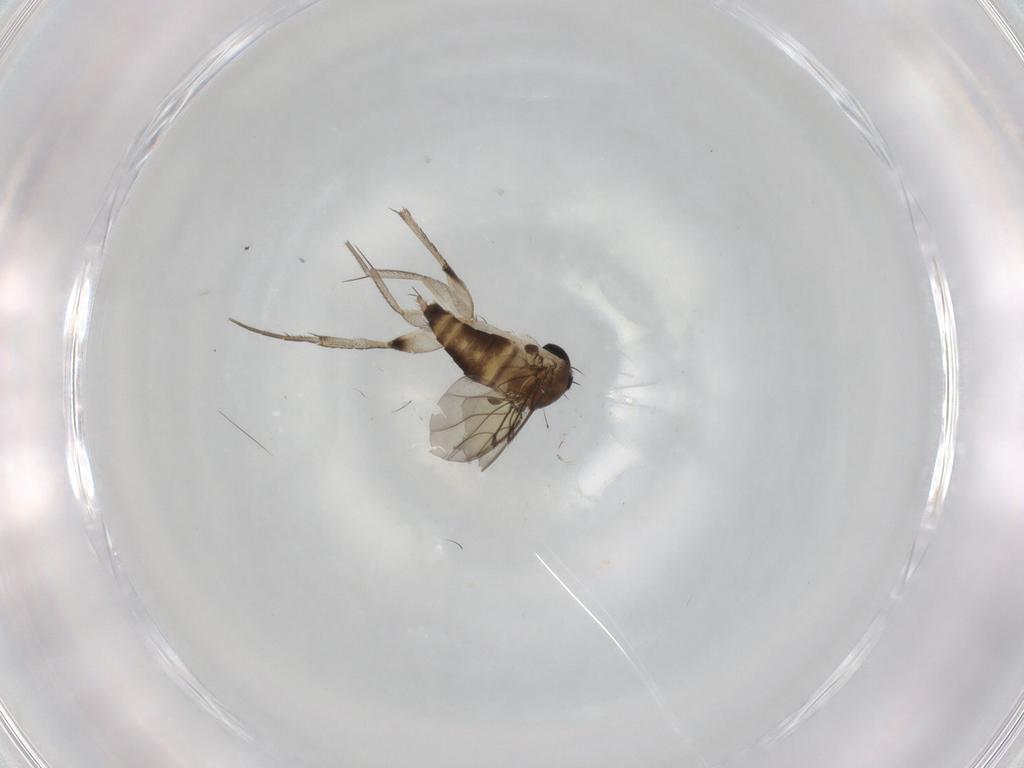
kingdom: Animalia
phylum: Arthropoda
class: Insecta
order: Diptera
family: Phoridae
